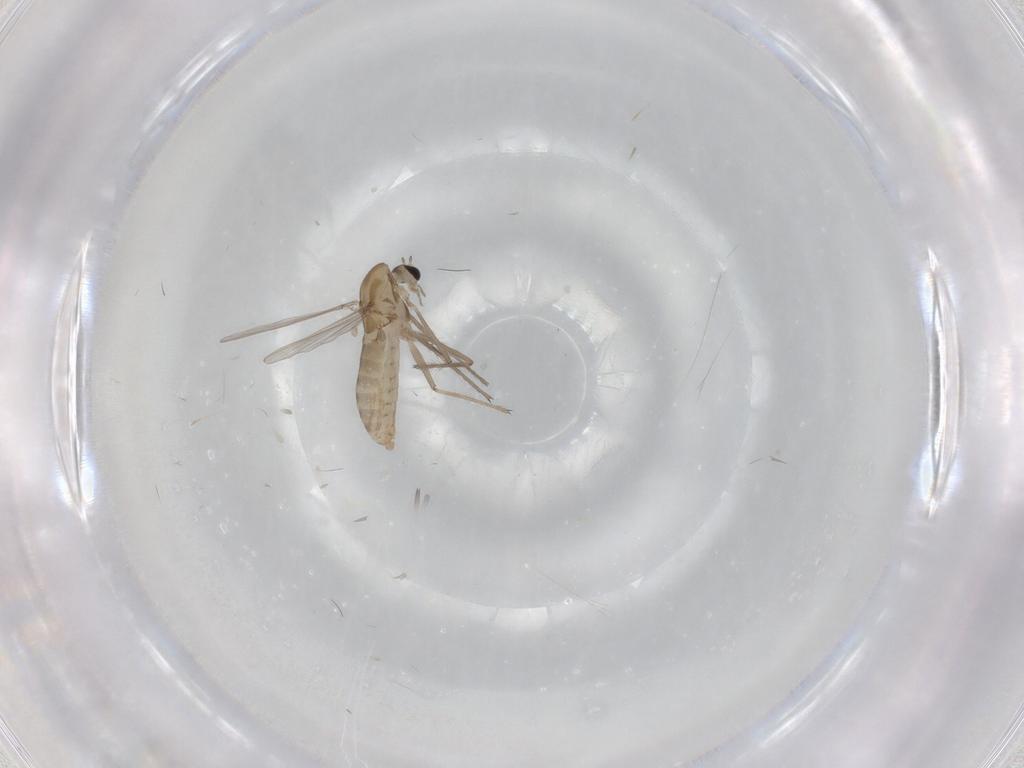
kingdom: Animalia
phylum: Arthropoda
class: Insecta
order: Diptera
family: Chironomidae
